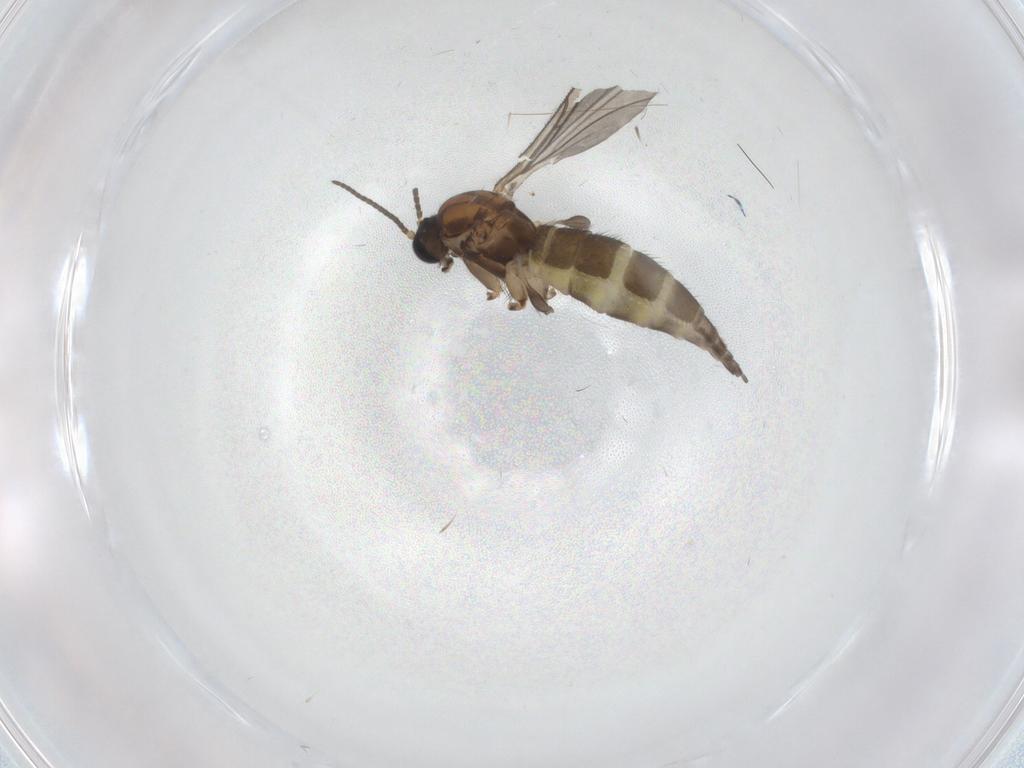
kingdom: Animalia
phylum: Arthropoda
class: Insecta
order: Diptera
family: Sciaridae
